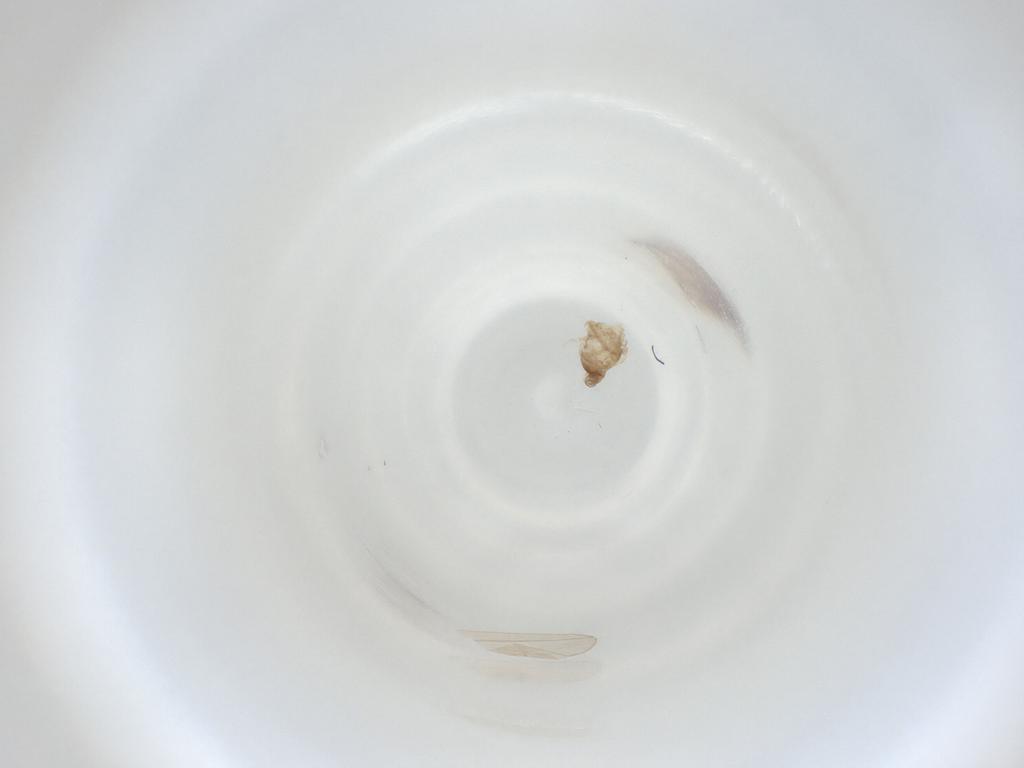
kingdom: Animalia
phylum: Arthropoda
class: Insecta
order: Diptera
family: Cecidomyiidae
